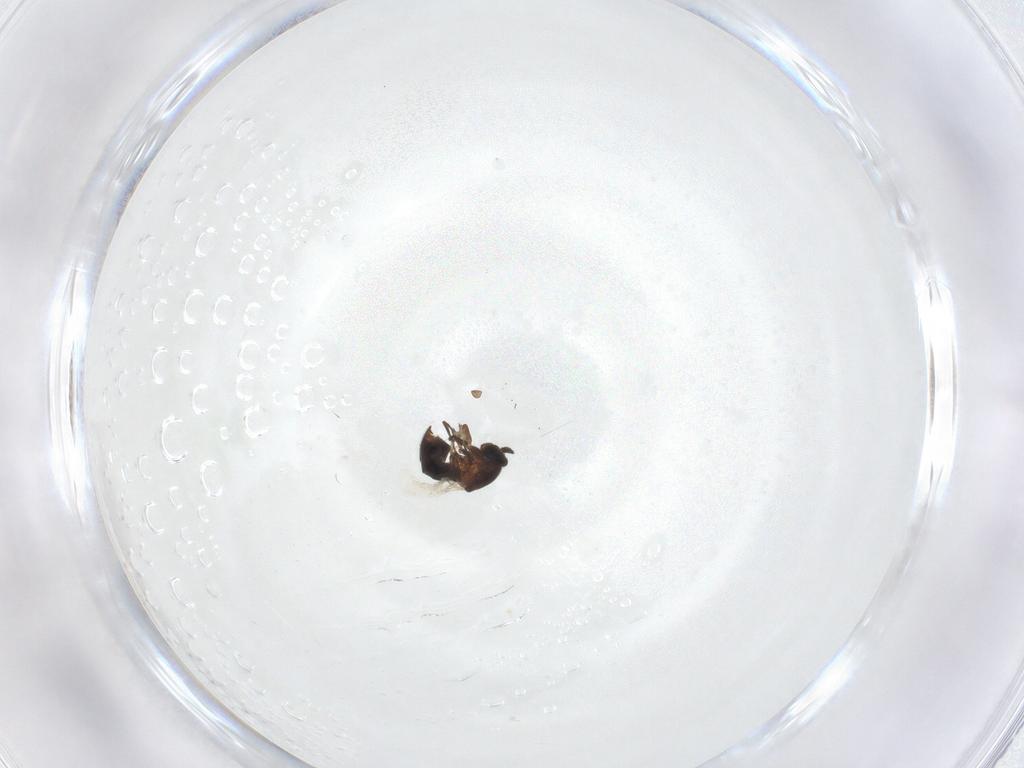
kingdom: Animalia
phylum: Arthropoda
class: Insecta
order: Diptera
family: Scatopsidae
